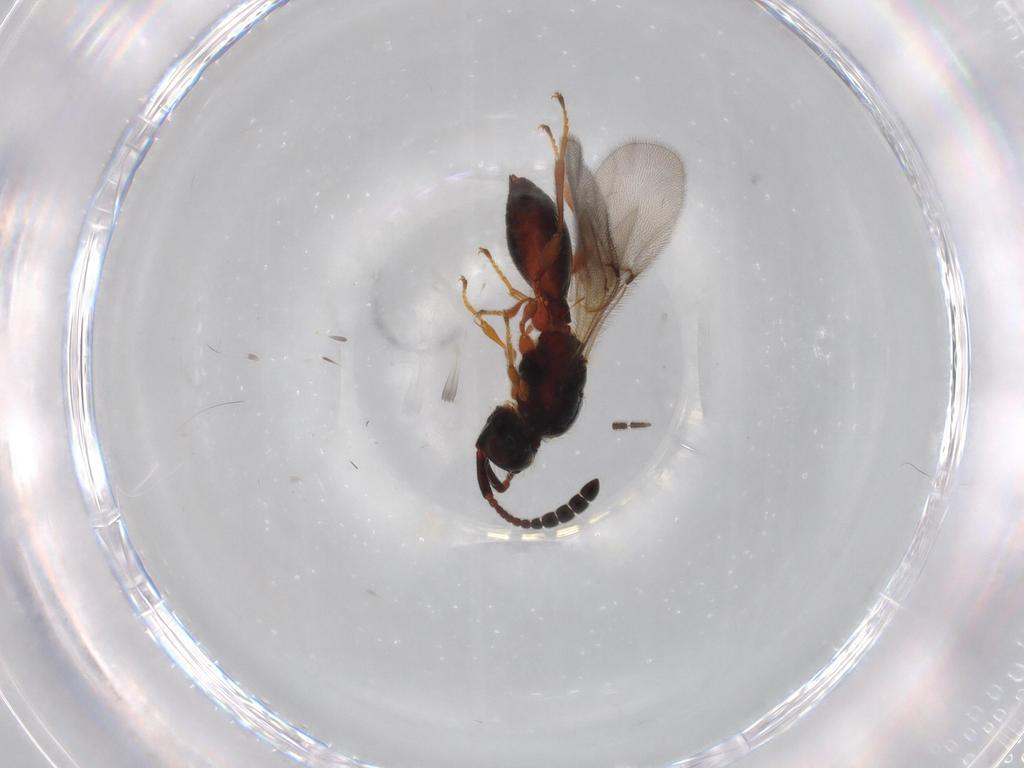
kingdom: Animalia
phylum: Arthropoda
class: Insecta
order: Hymenoptera
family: Diapriidae
